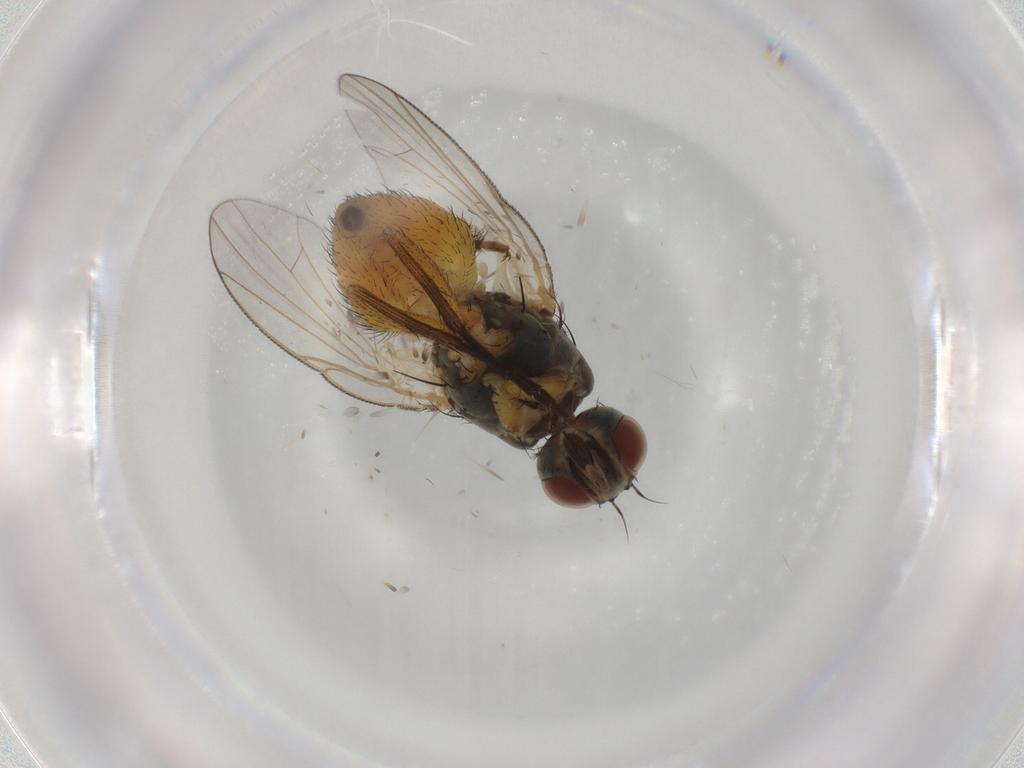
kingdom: Animalia
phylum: Arthropoda
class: Insecta
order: Diptera
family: Muscidae
